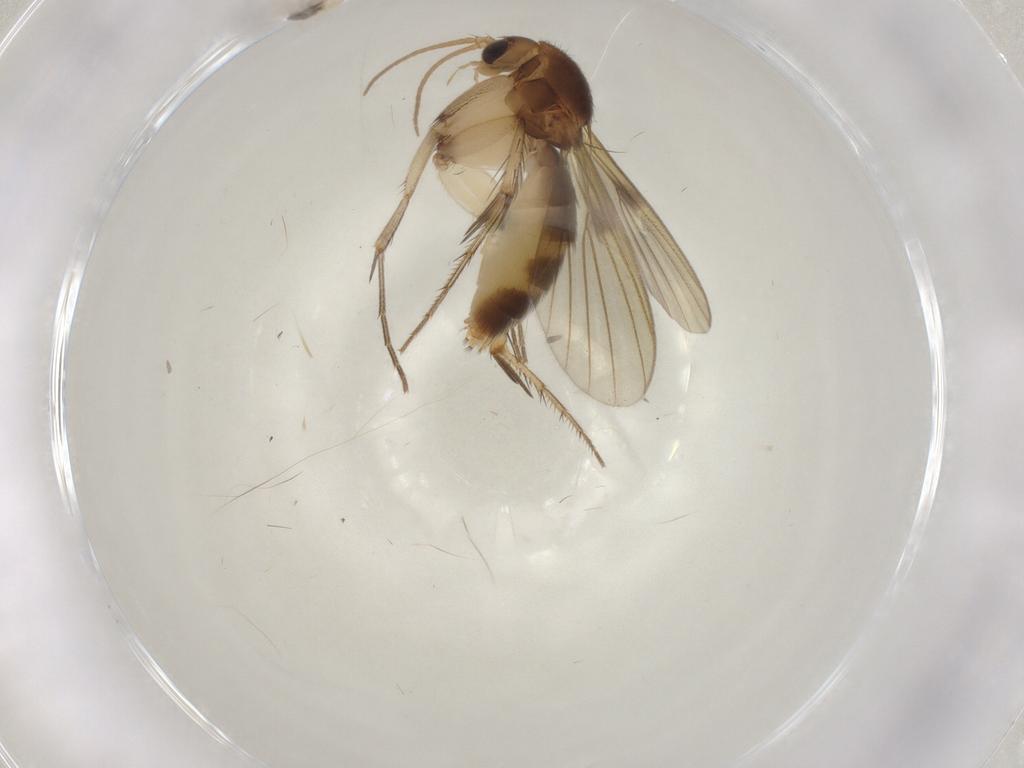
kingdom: Animalia
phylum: Arthropoda
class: Insecta
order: Diptera
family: Mycetophilidae
